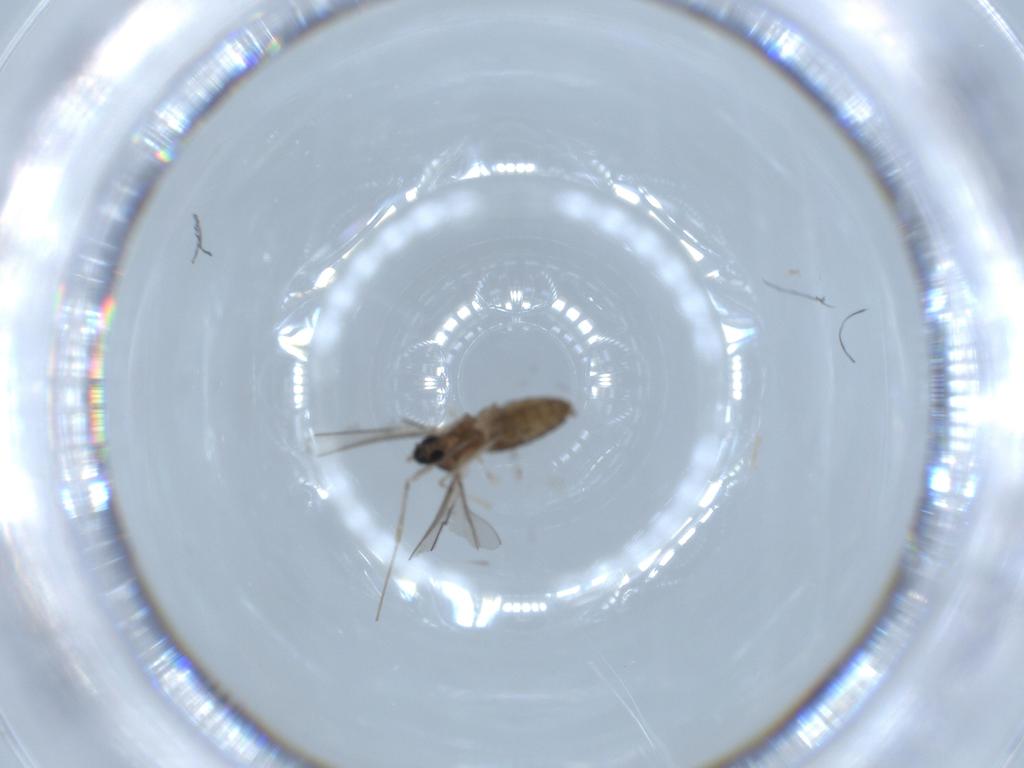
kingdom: Animalia
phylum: Arthropoda
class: Insecta
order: Diptera
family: Cecidomyiidae
